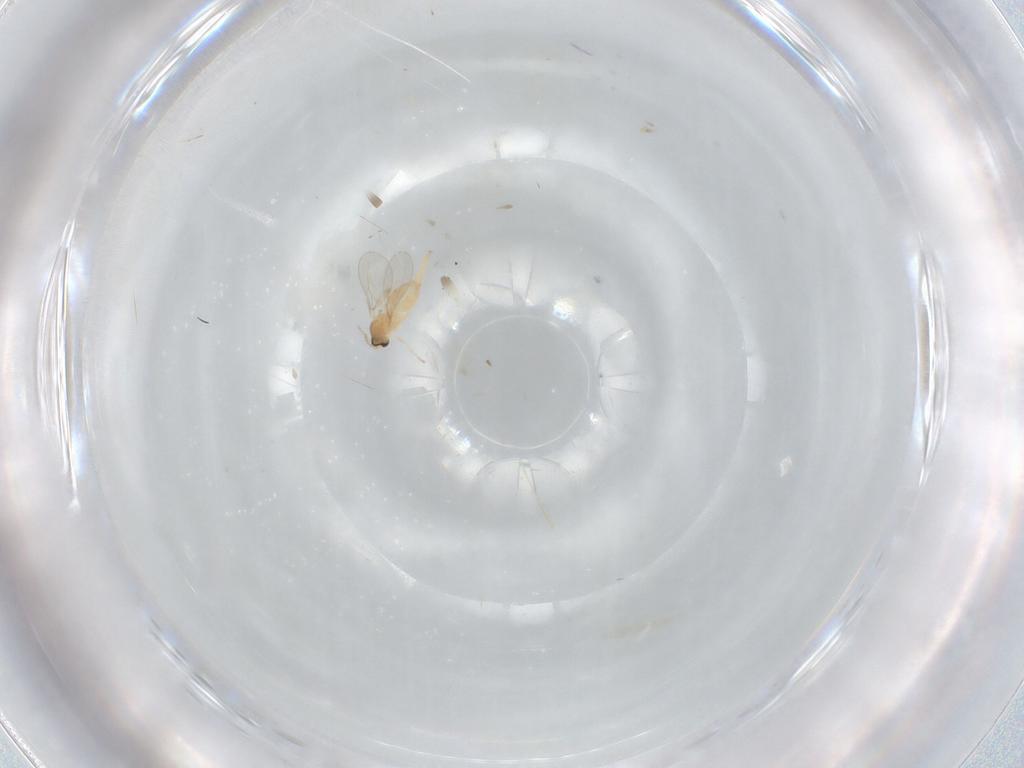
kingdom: Animalia
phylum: Arthropoda
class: Insecta
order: Diptera
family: Cecidomyiidae
